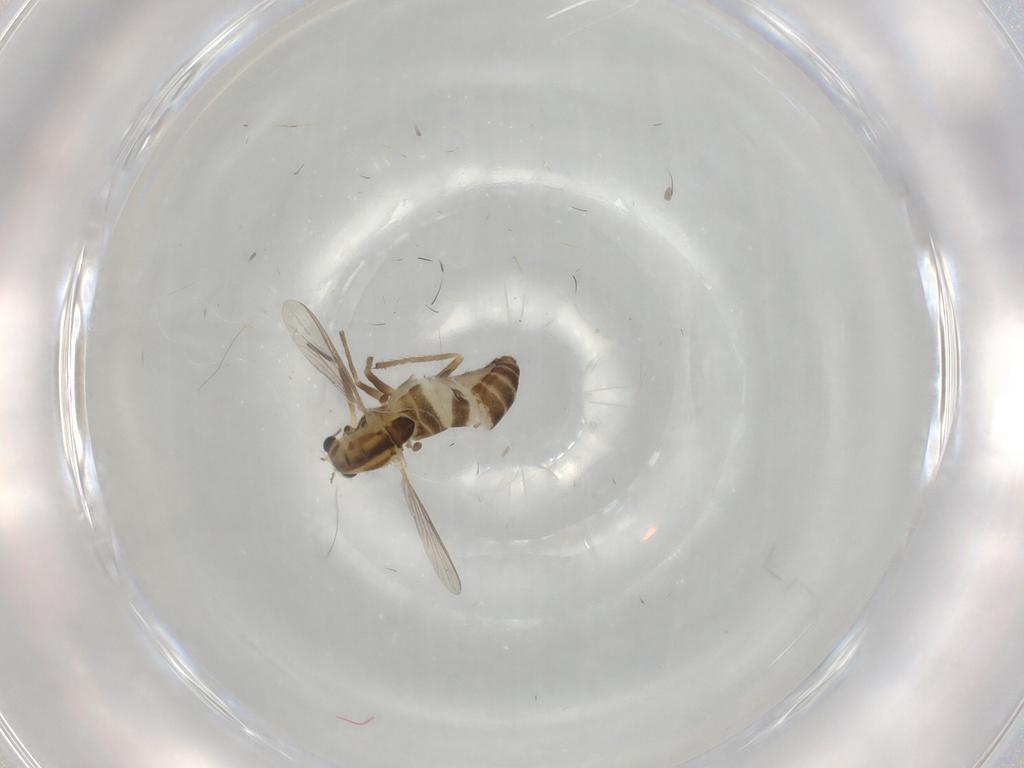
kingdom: Animalia
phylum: Arthropoda
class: Insecta
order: Diptera
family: Chironomidae
